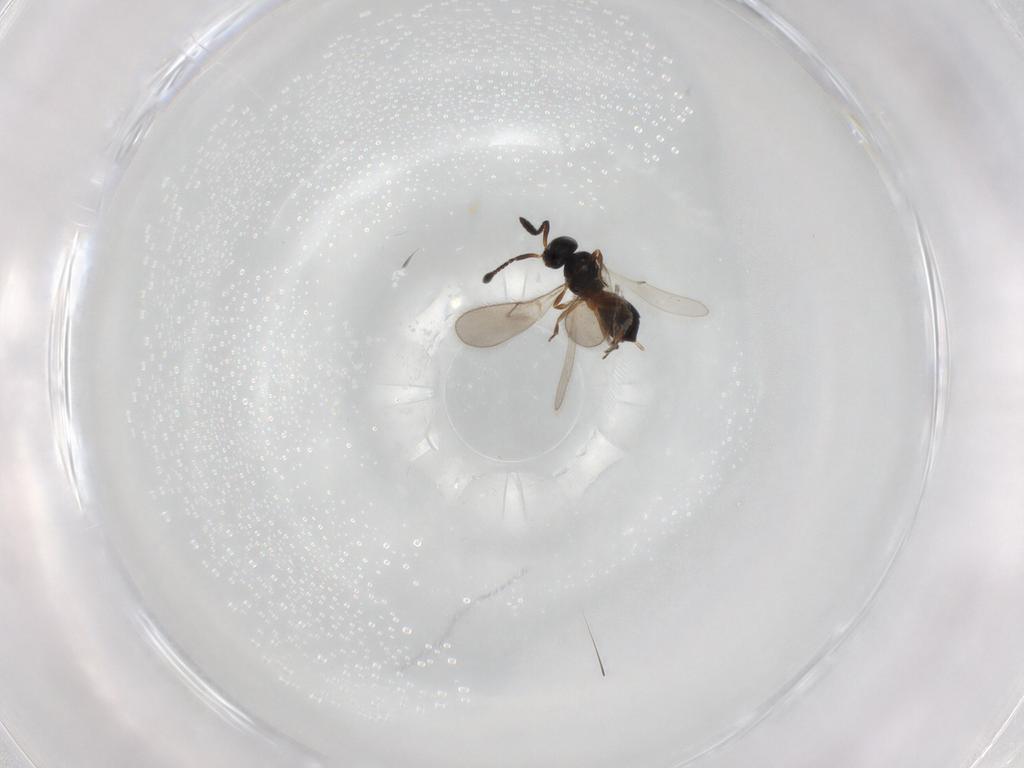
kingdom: Animalia
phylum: Arthropoda
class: Insecta
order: Hymenoptera
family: Scelionidae
